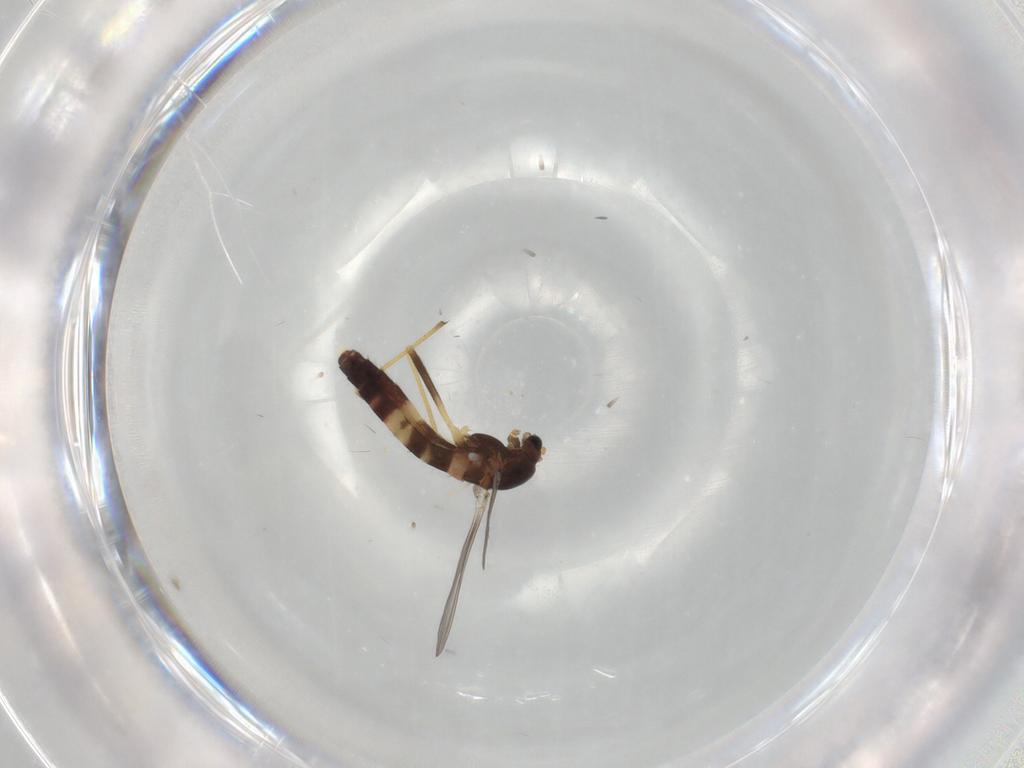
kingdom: Animalia
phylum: Arthropoda
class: Insecta
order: Diptera
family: Chironomidae
